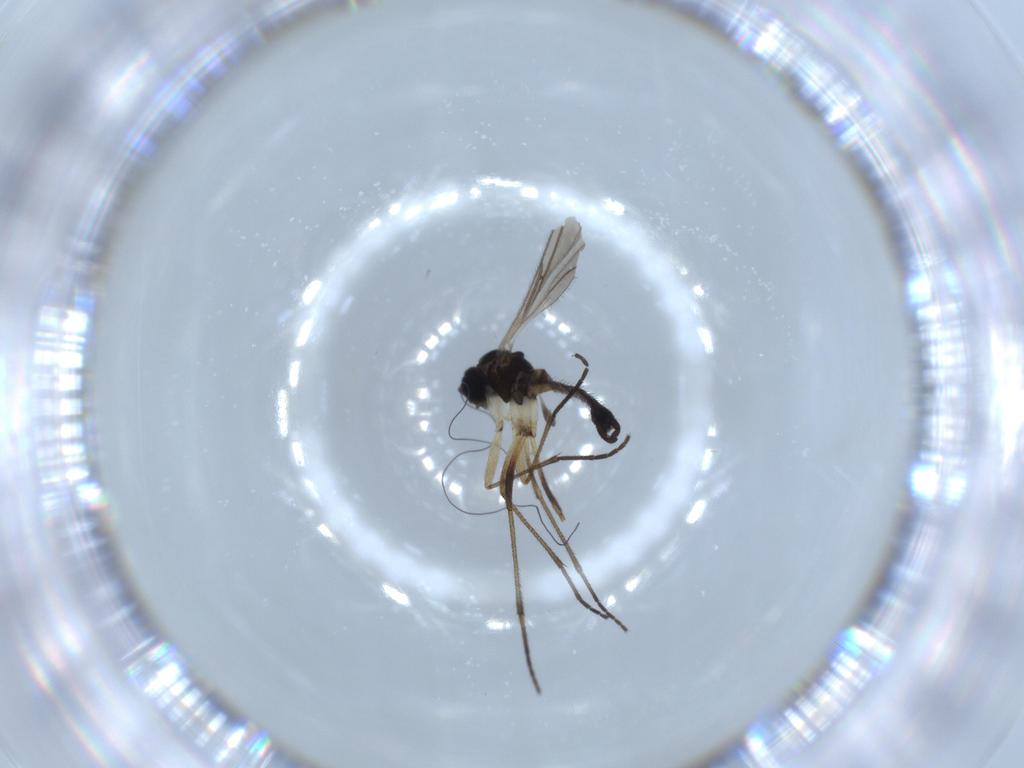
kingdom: Animalia
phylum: Arthropoda
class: Insecta
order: Diptera
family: Sciaridae
